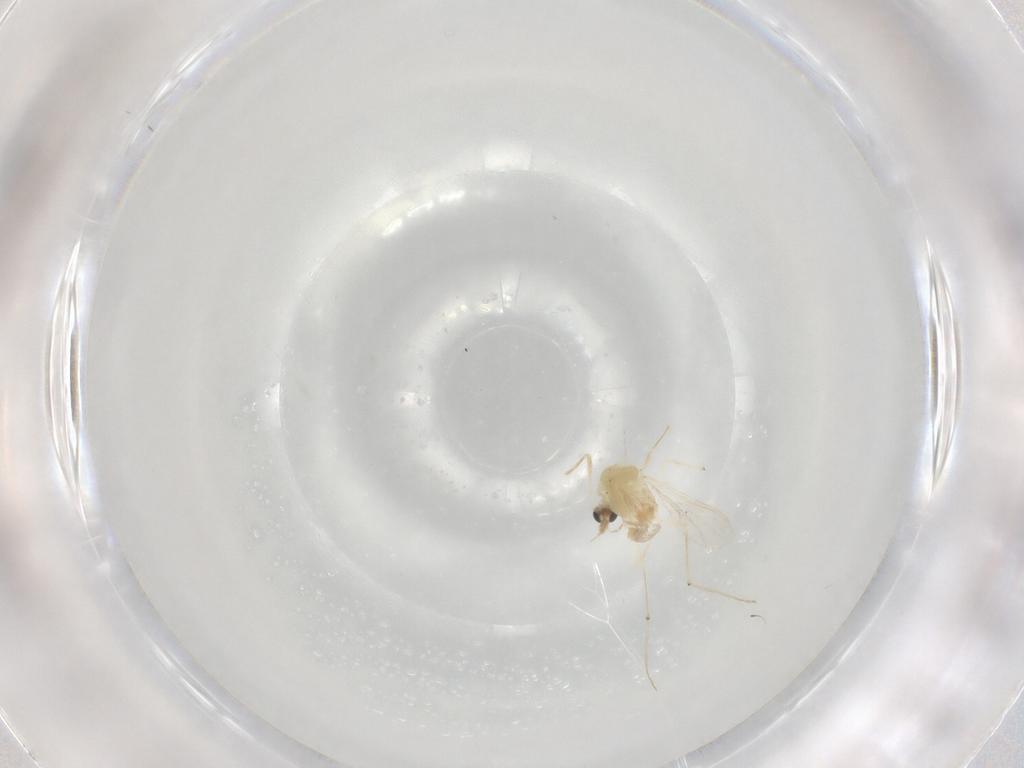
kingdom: Animalia
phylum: Arthropoda
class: Insecta
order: Diptera
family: Chironomidae
